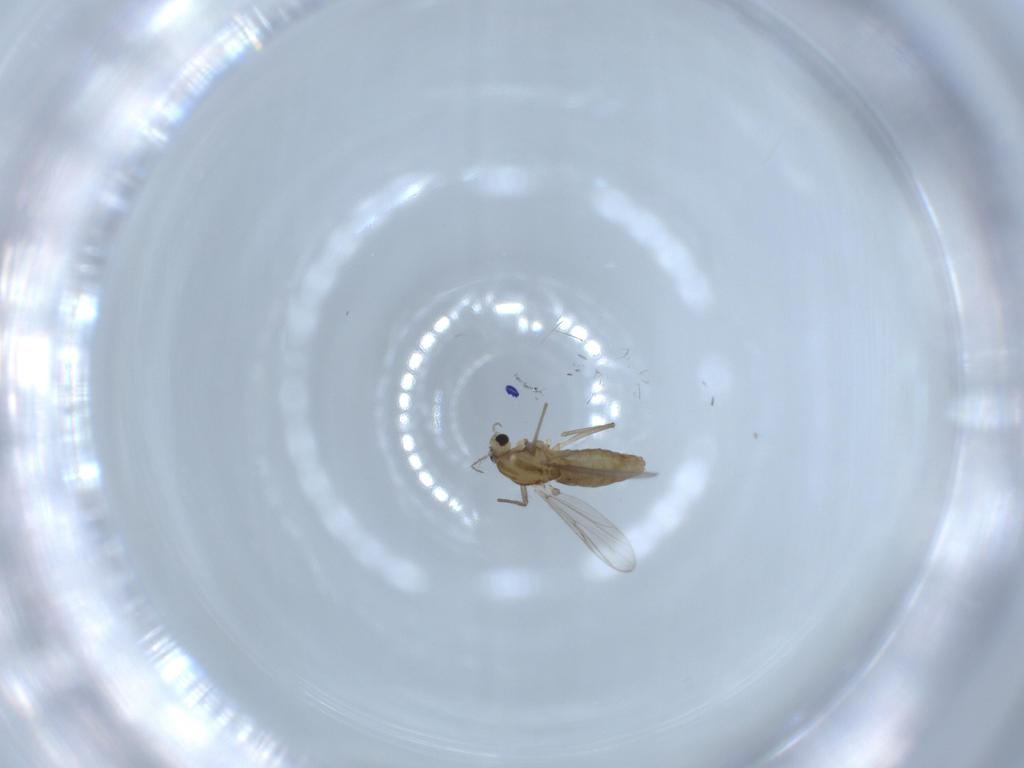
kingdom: Animalia
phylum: Arthropoda
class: Insecta
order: Diptera
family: Chironomidae
